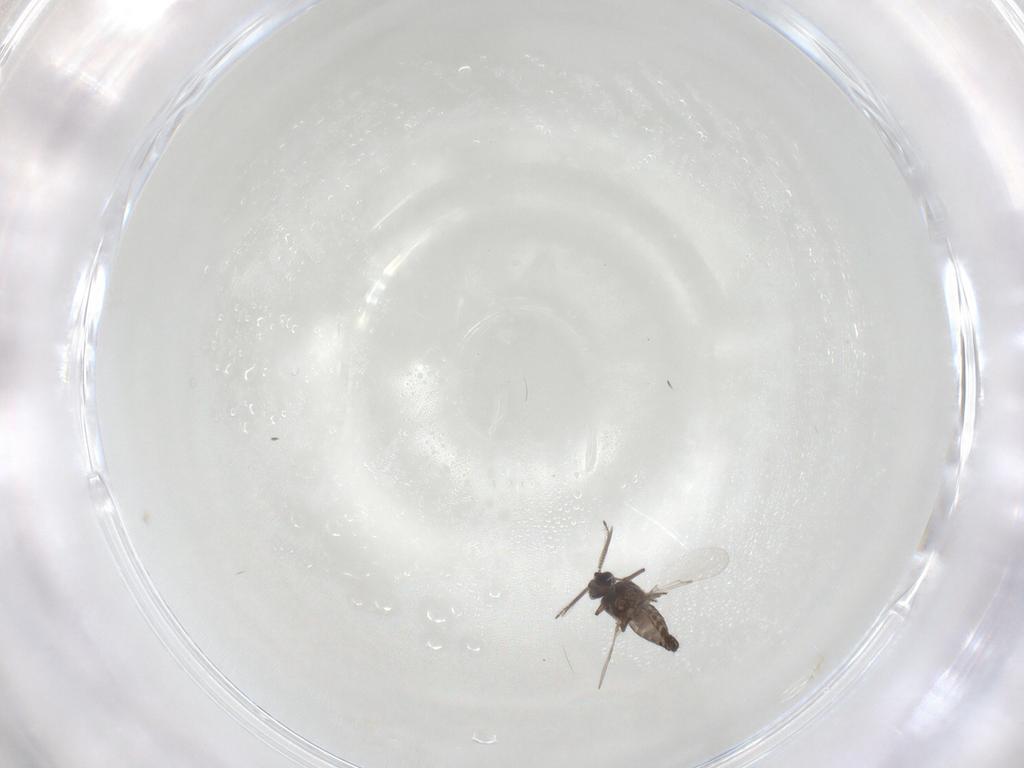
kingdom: Animalia
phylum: Arthropoda
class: Insecta
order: Diptera
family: Ceratopogonidae
